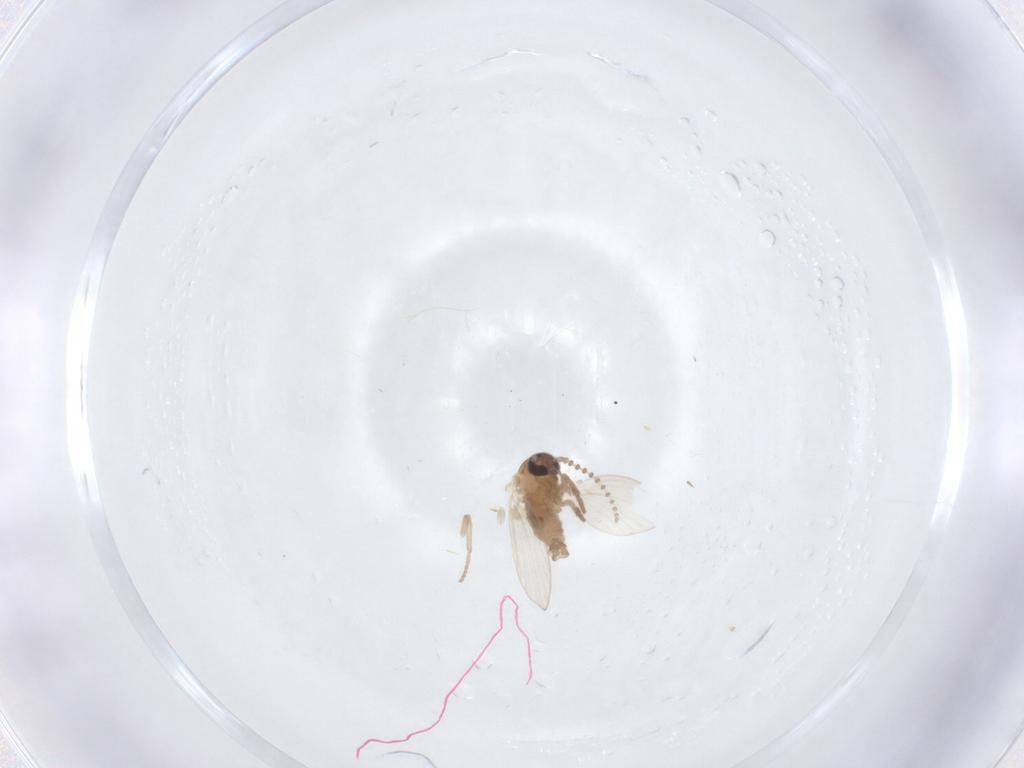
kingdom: Animalia
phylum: Arthropoda
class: Insecta
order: Diptera
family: Psychodidae
